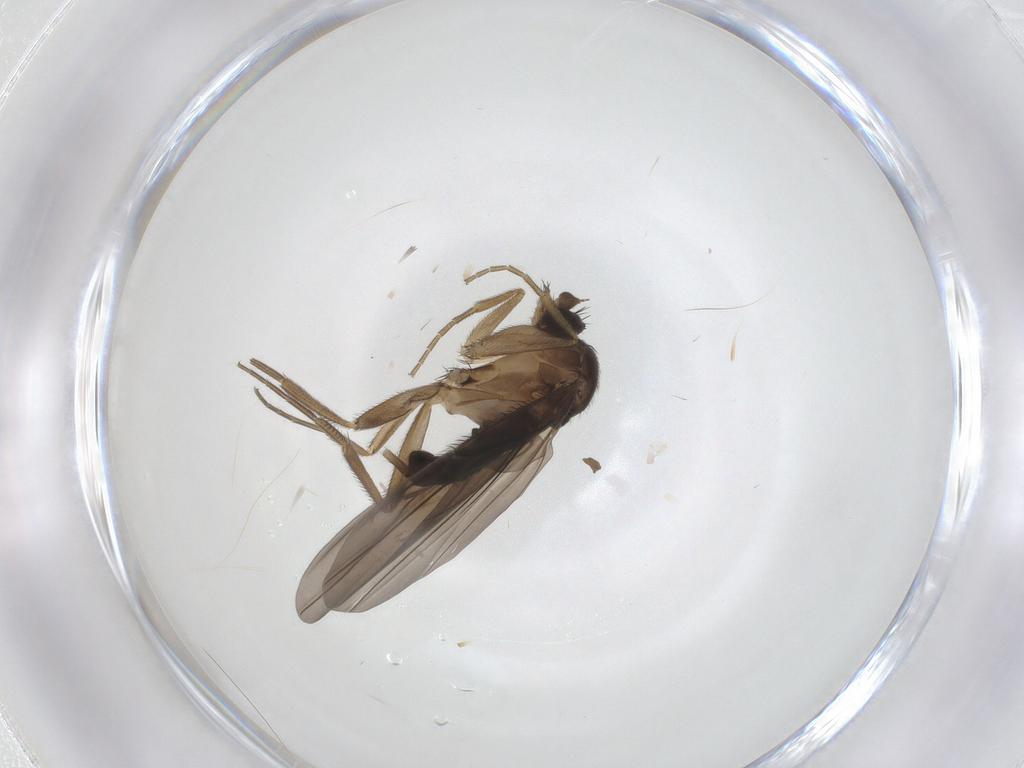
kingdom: Animalia
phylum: Arthropoda
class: Insecta
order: Diptera
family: Phoridae
